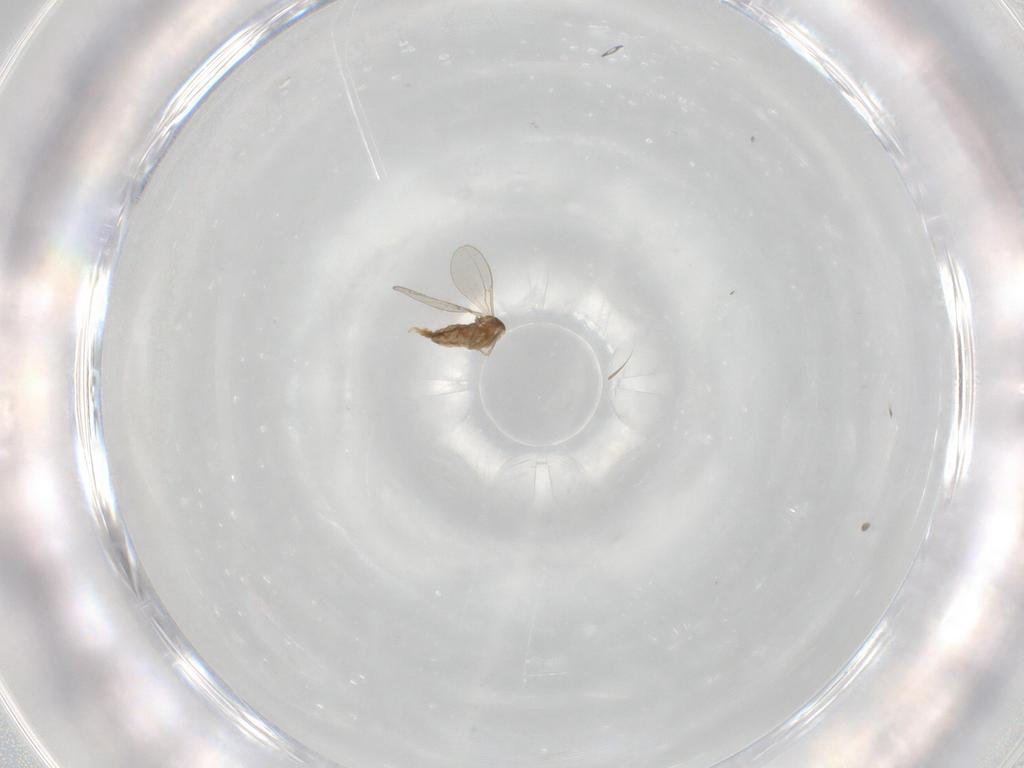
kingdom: Animalia
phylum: Arthropoda
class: Insecta
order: Diptera
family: Cecidomyiidae
